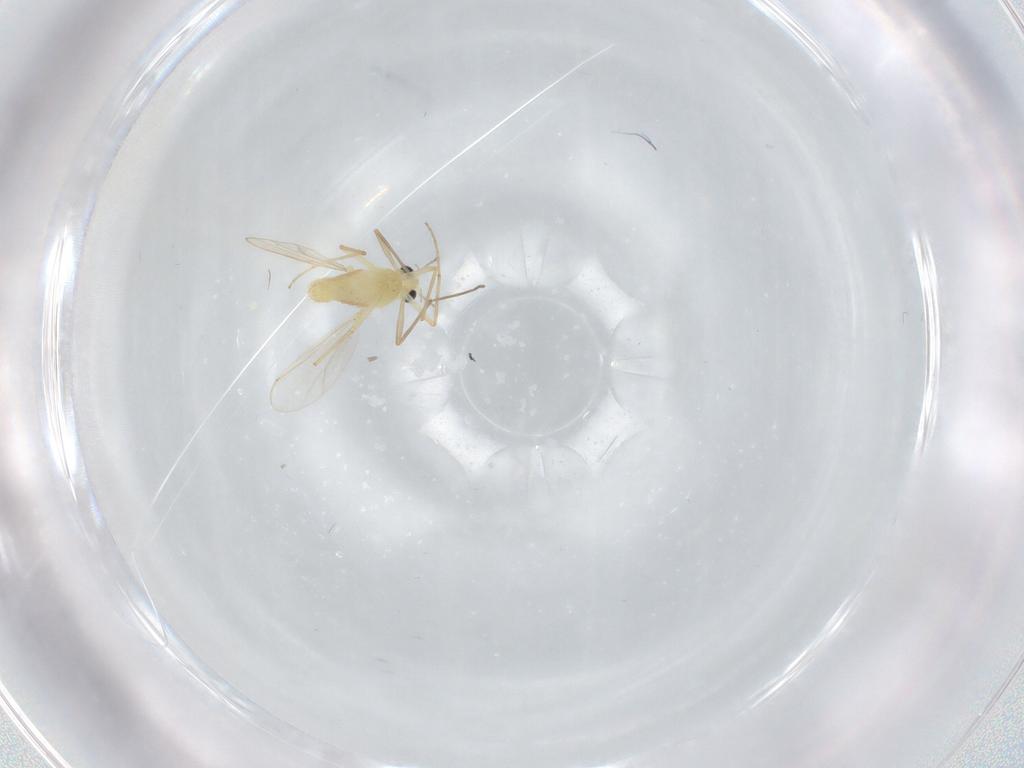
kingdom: Animalia
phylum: Arthropoda
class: Insecta
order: Diptera
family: Chironomidae
